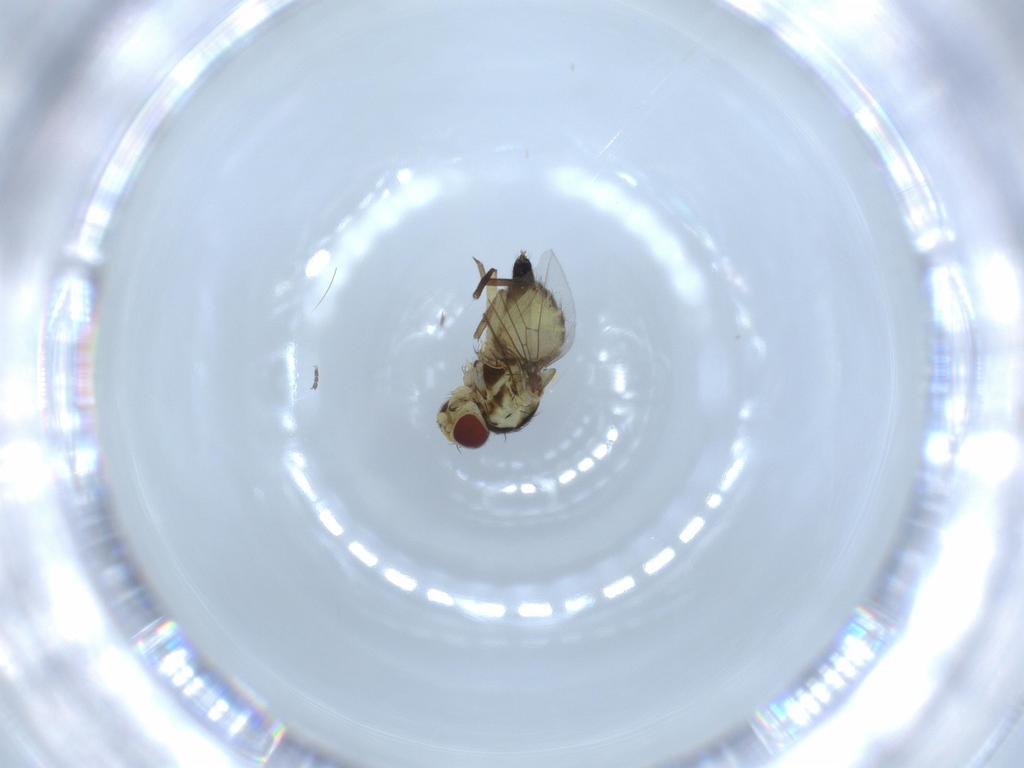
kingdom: Animalia
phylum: Arthropoda
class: Insecta
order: Diptera
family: Agromyzidae
